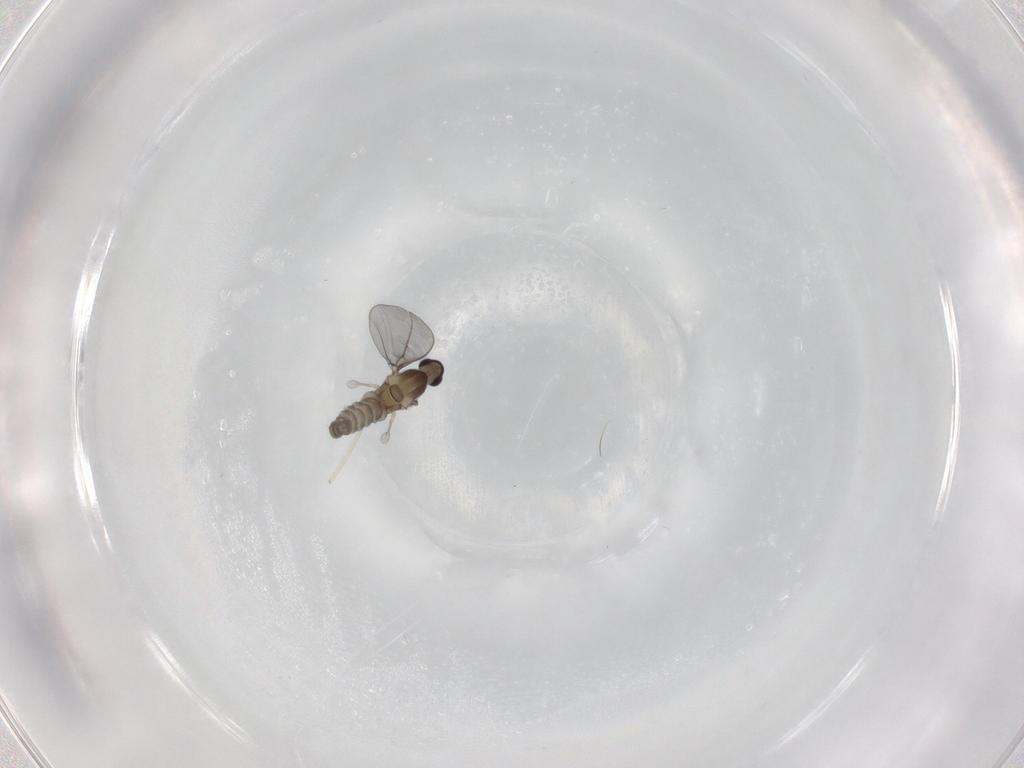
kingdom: Animalia
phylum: Arthropoda
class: Insecta
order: Diptera
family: Cecidomyiidae
